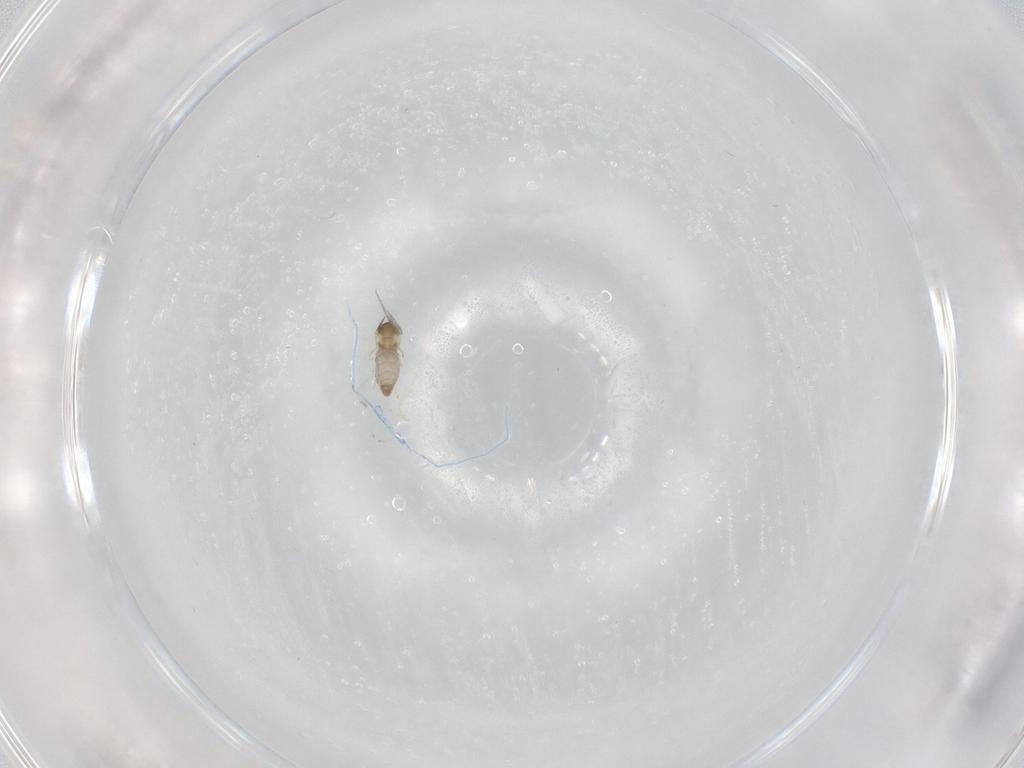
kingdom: Animalia
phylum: Arthropoda
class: Insecta
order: Diptera
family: Cecidomyiidae
